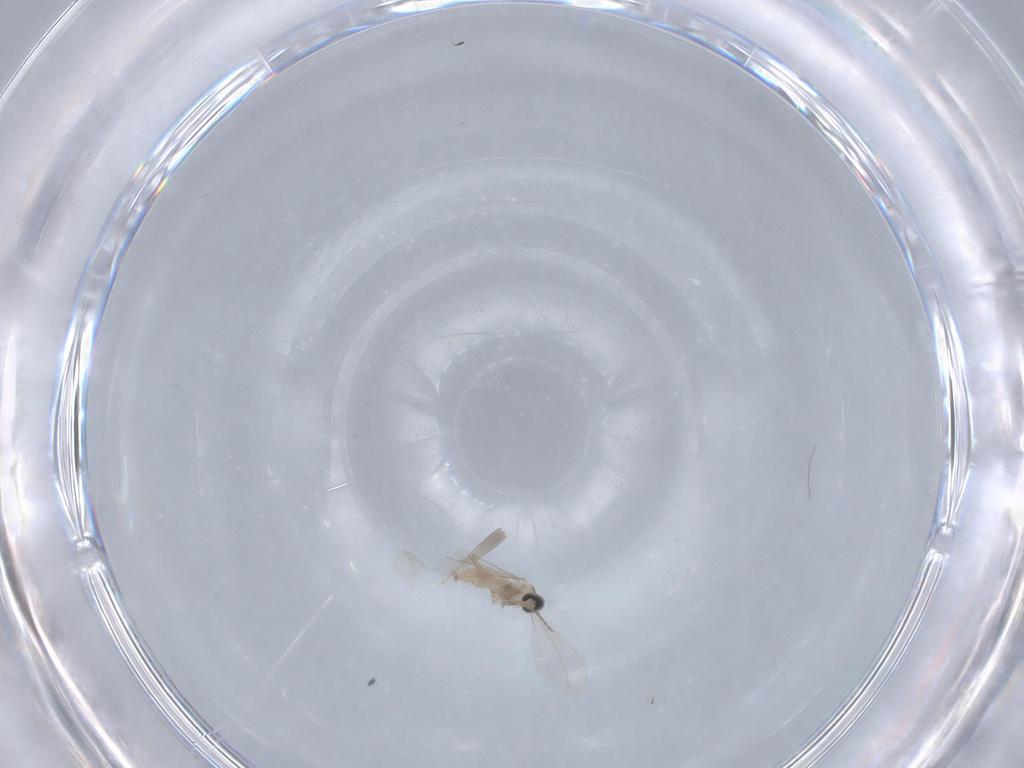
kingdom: Animalia
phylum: Arthropoda
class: Insecta
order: Diptera
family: Cecidomyiidae
